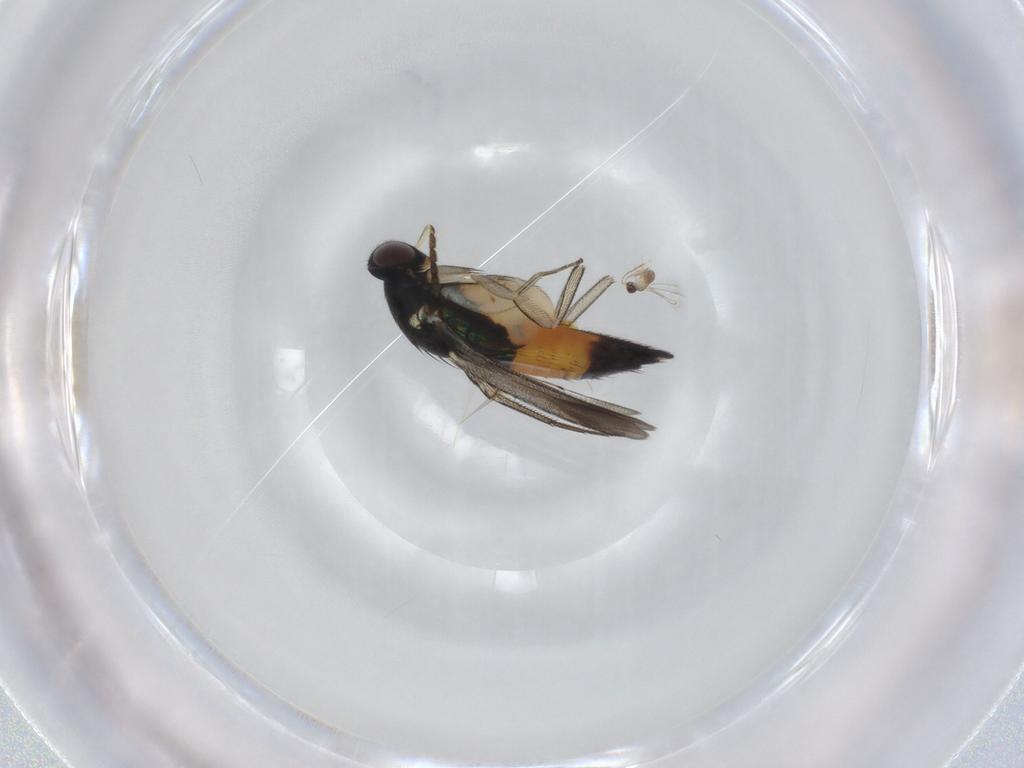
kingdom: Animalia
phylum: Arthropoda
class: Insecta
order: Hymenoptera
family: Eulophidae
